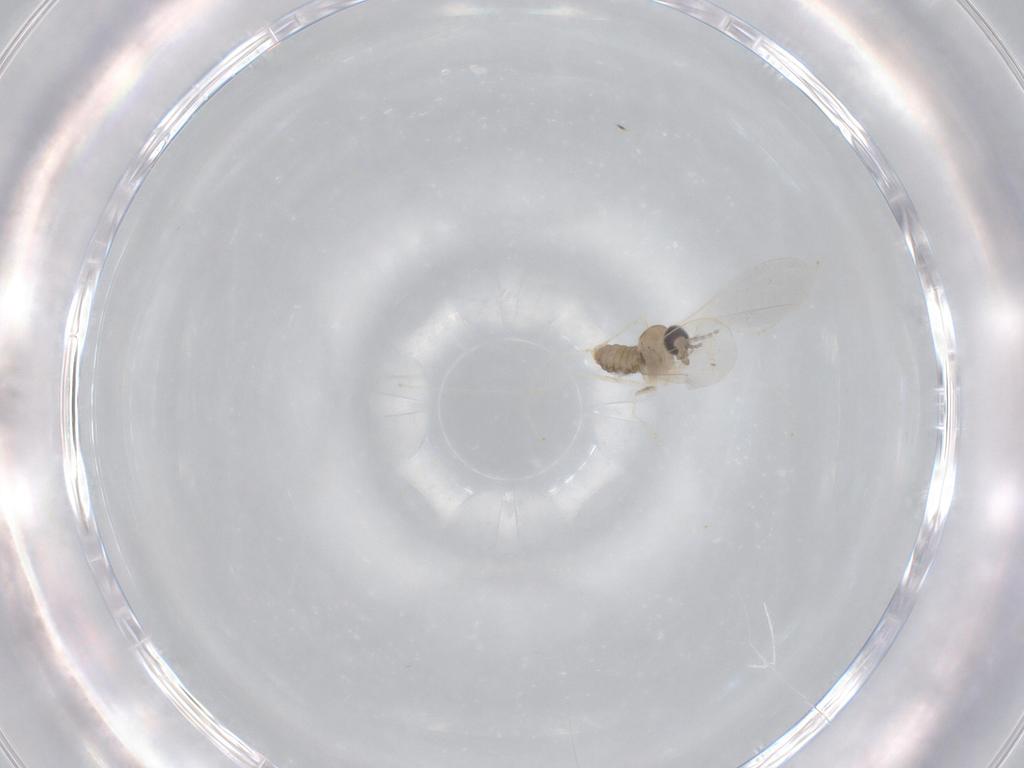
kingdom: Animalia
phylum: Arthropoda
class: Insecta
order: Diptera
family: Cecidomyiidae
